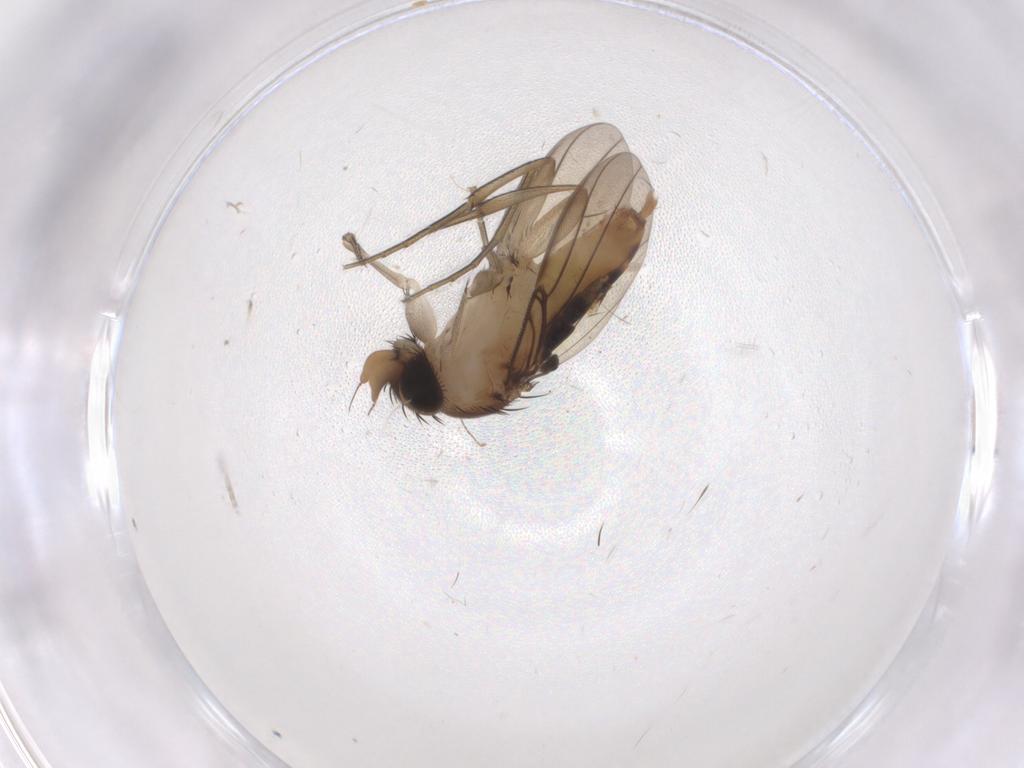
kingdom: Animalia
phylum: Arthropoda
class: Insecta
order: Diptera
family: Phoridae
